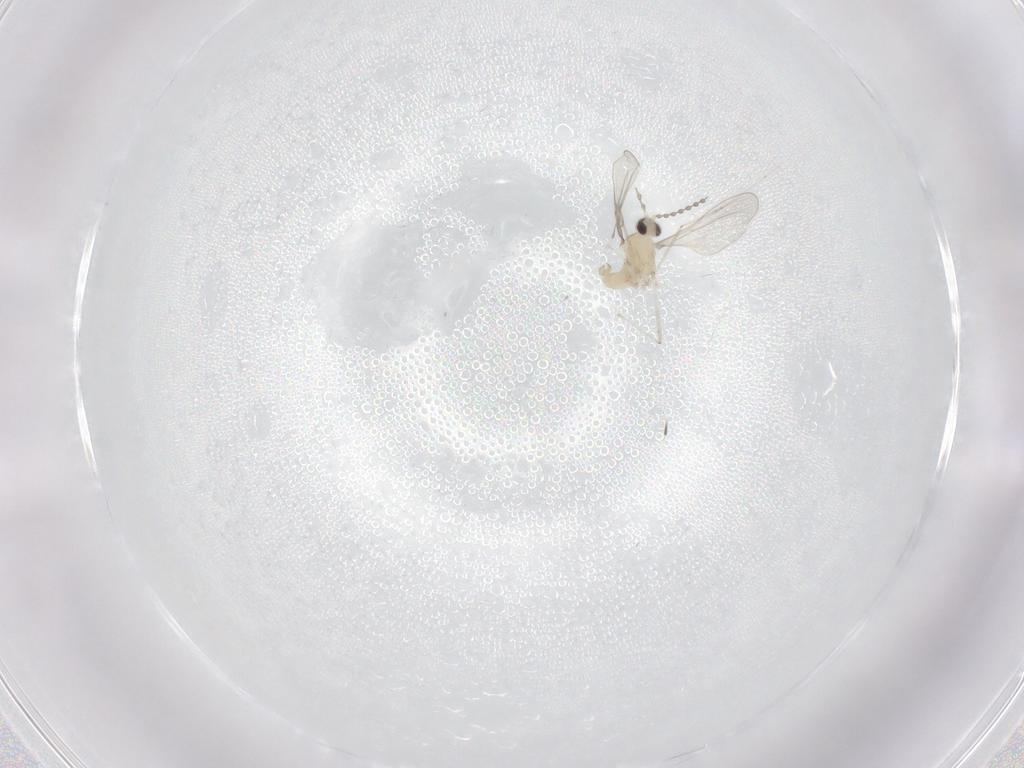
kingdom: Animalia
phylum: Arthropoda
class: Insecta
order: Diptera
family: Cecidomyiidae
